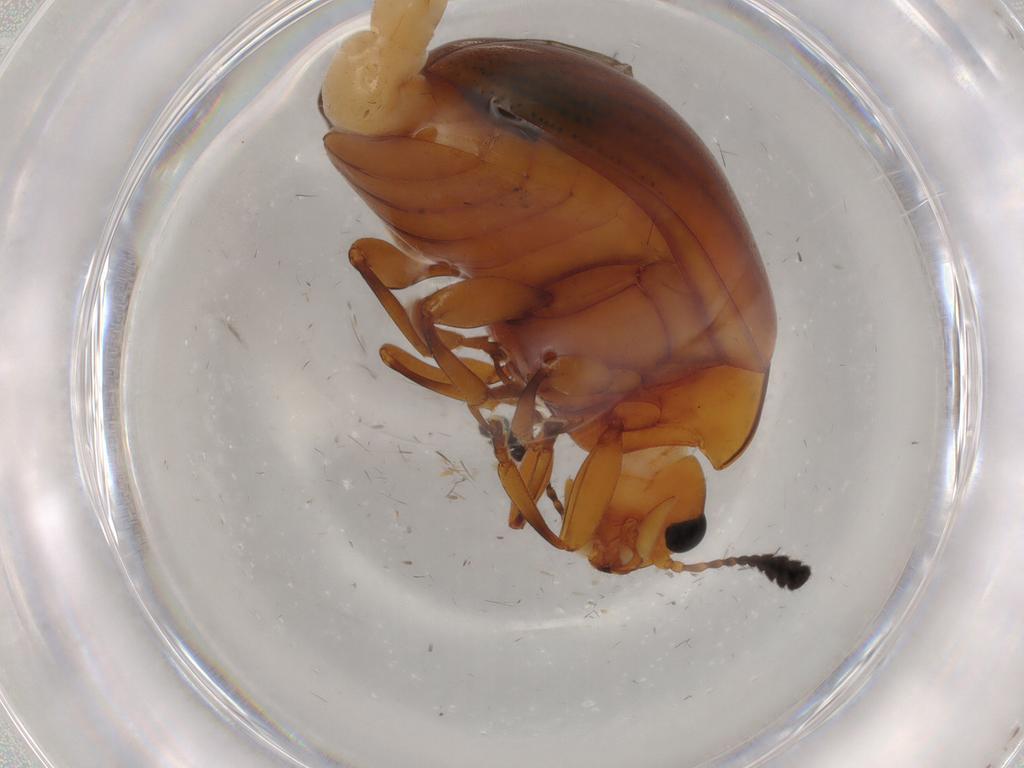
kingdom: Animalia
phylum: Arthropoda
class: Insecta
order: Coleoptera
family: Erotylidae
